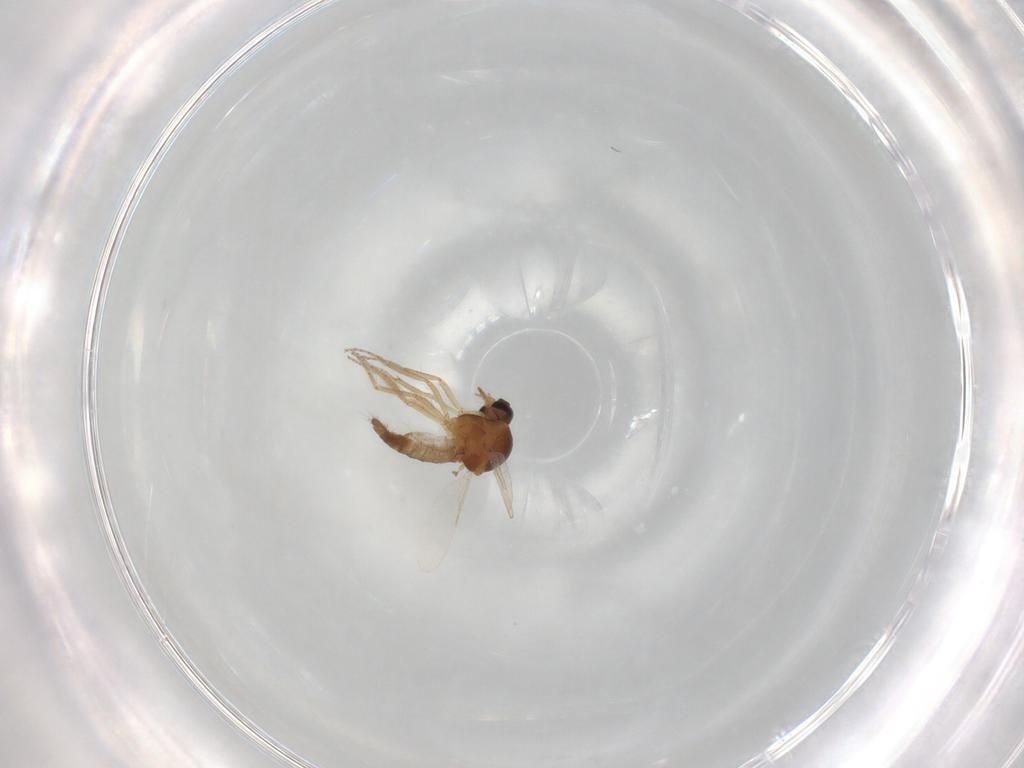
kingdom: Animalia
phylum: Arthropoda
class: Insecta
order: Diptera
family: Ceratopogonidae
